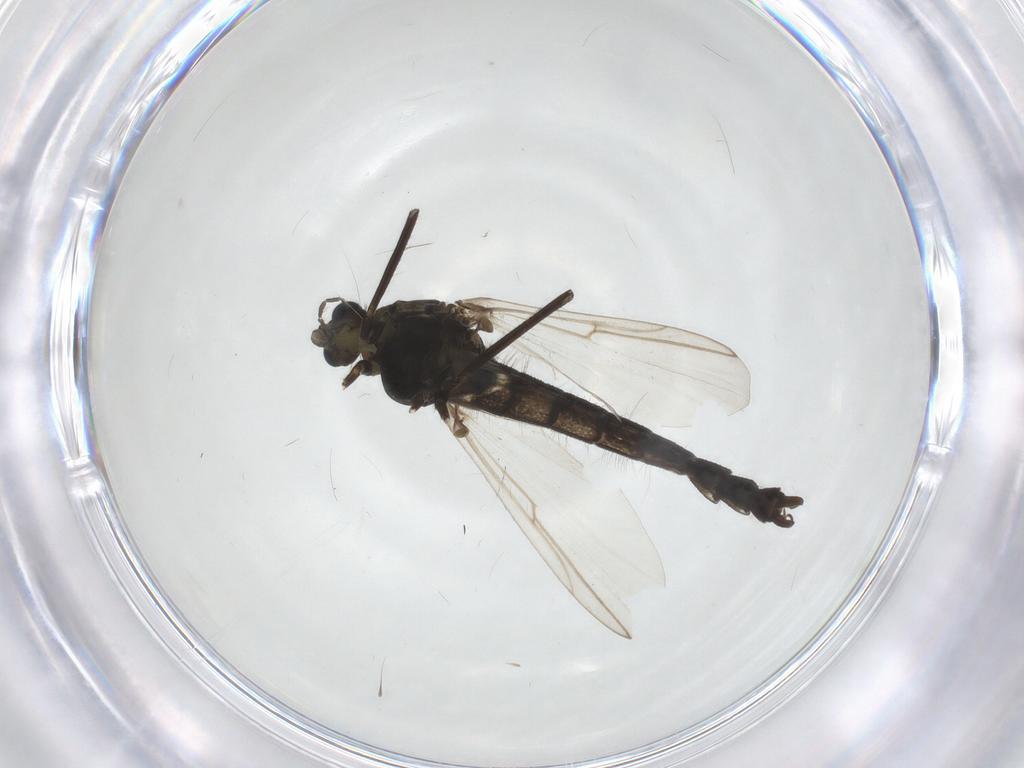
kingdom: Animalia
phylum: Arthropoda
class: Insecta
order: Diptera
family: Chironomidae
